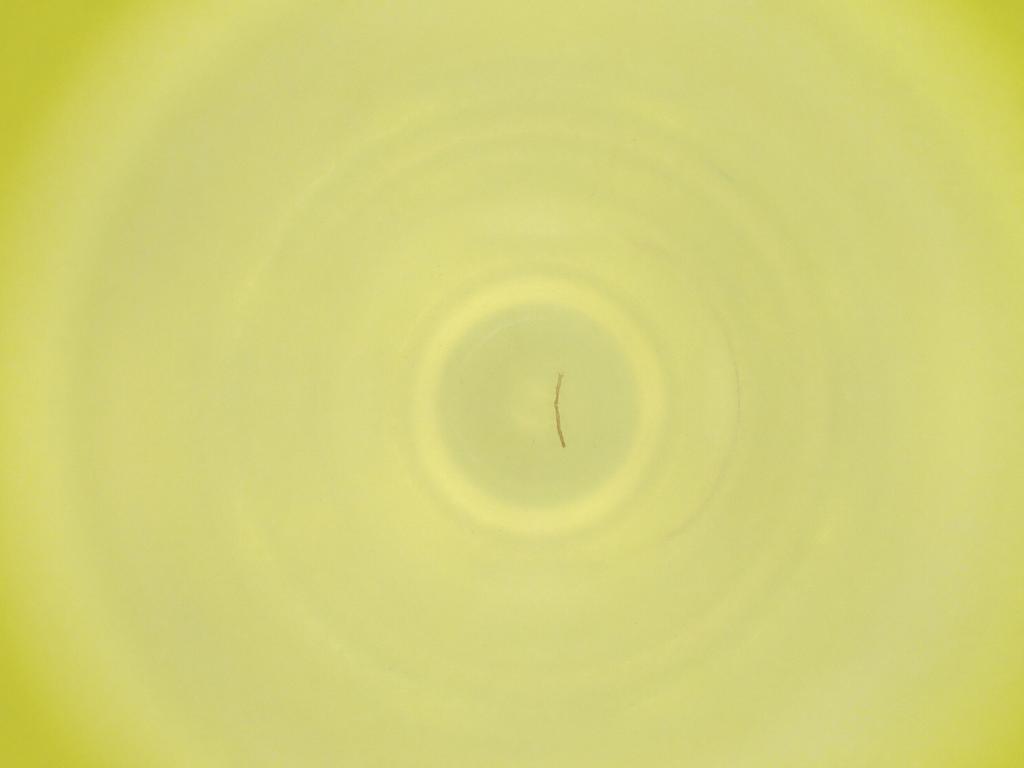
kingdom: Animalia
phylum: Arthropoda
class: Insecta
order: Diptera
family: Cecidomyiidae
